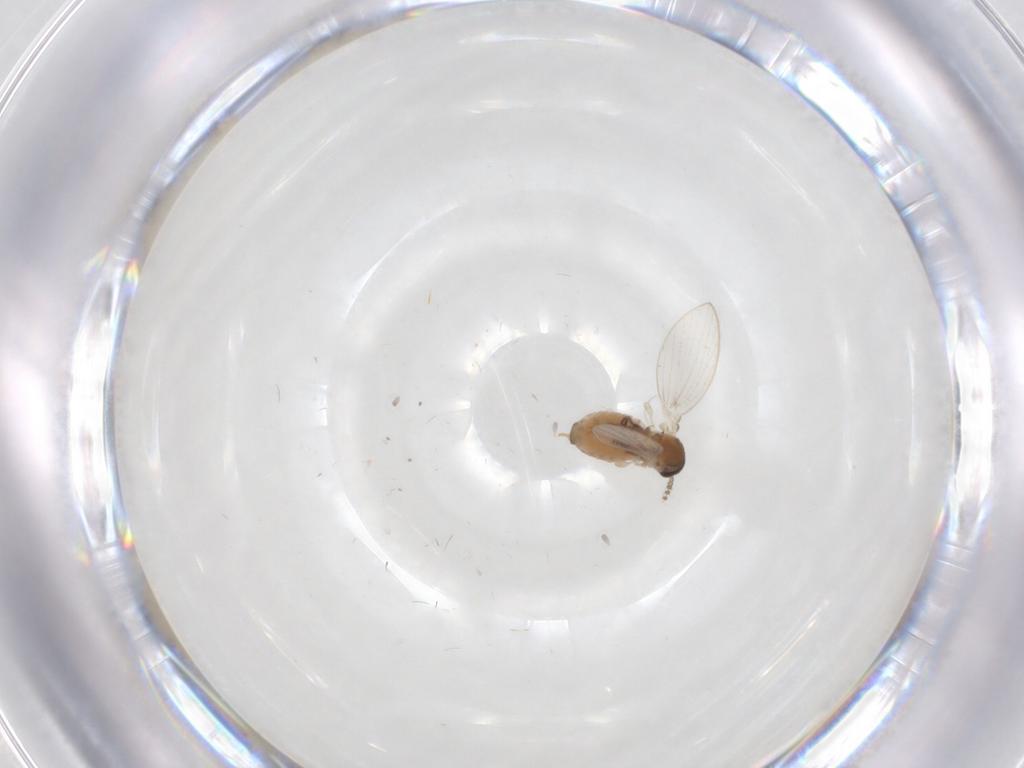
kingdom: Animalia
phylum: Arthropoda
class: Insecta
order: Diptera
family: Psychodidae
